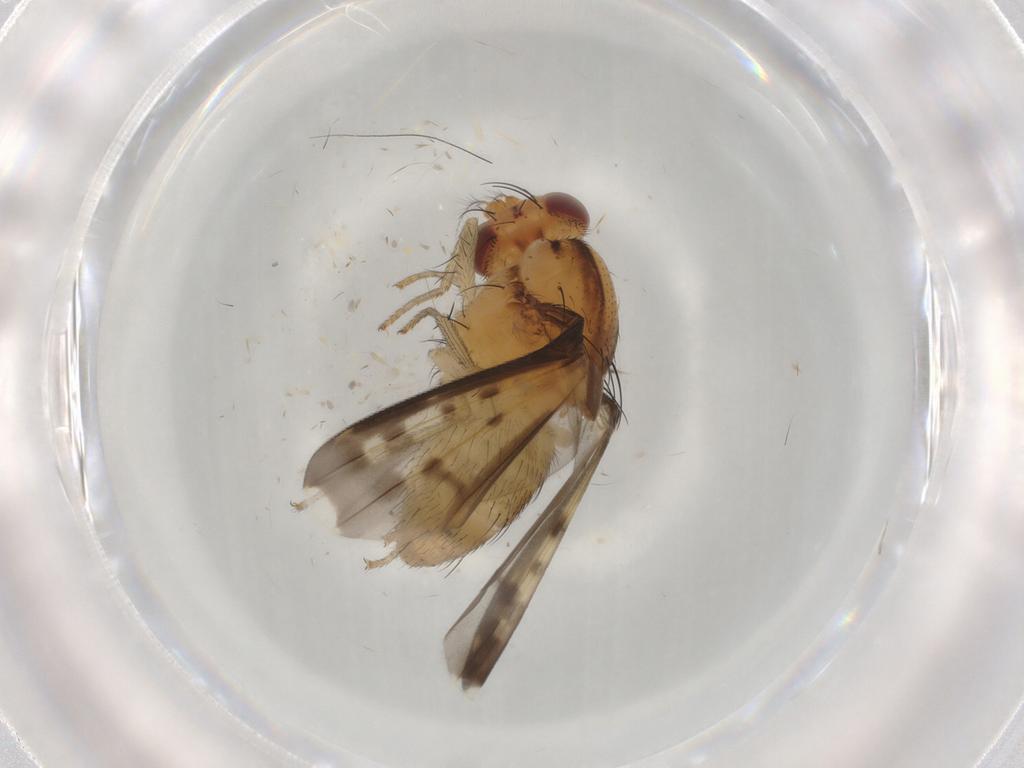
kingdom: Animalia
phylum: Arthropoda
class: Insecta
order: Diptera
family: Lauxaniidae
